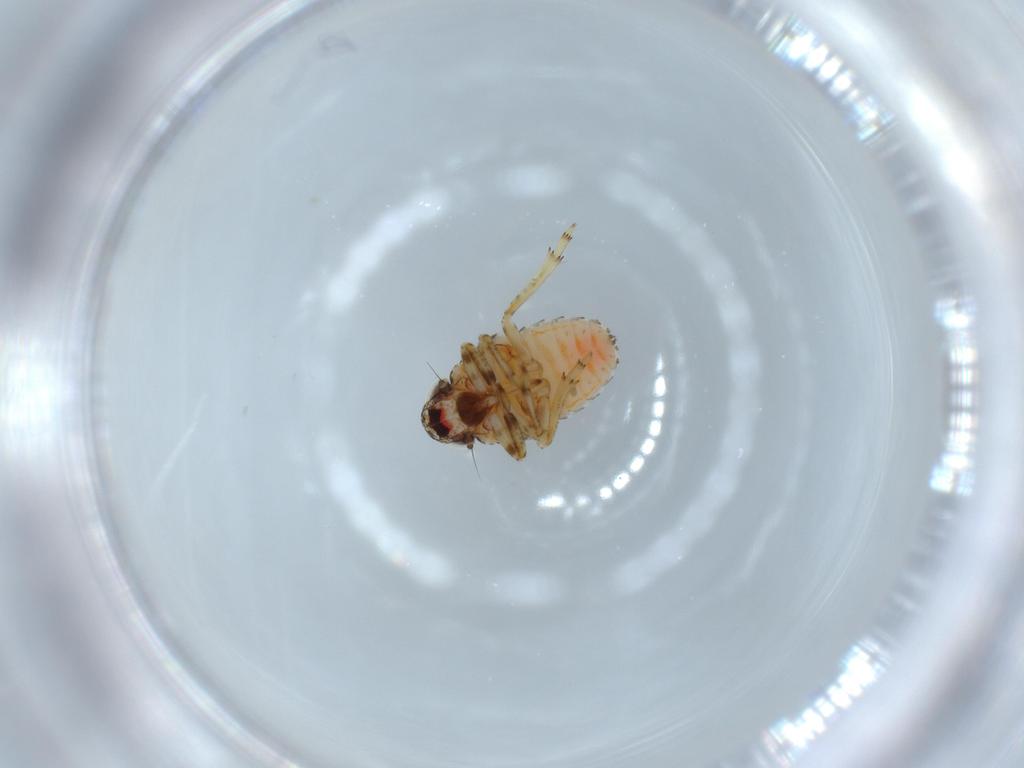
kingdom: Animalia
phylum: Arthropoda
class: Insecta
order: Hemiptera
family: Issidae
